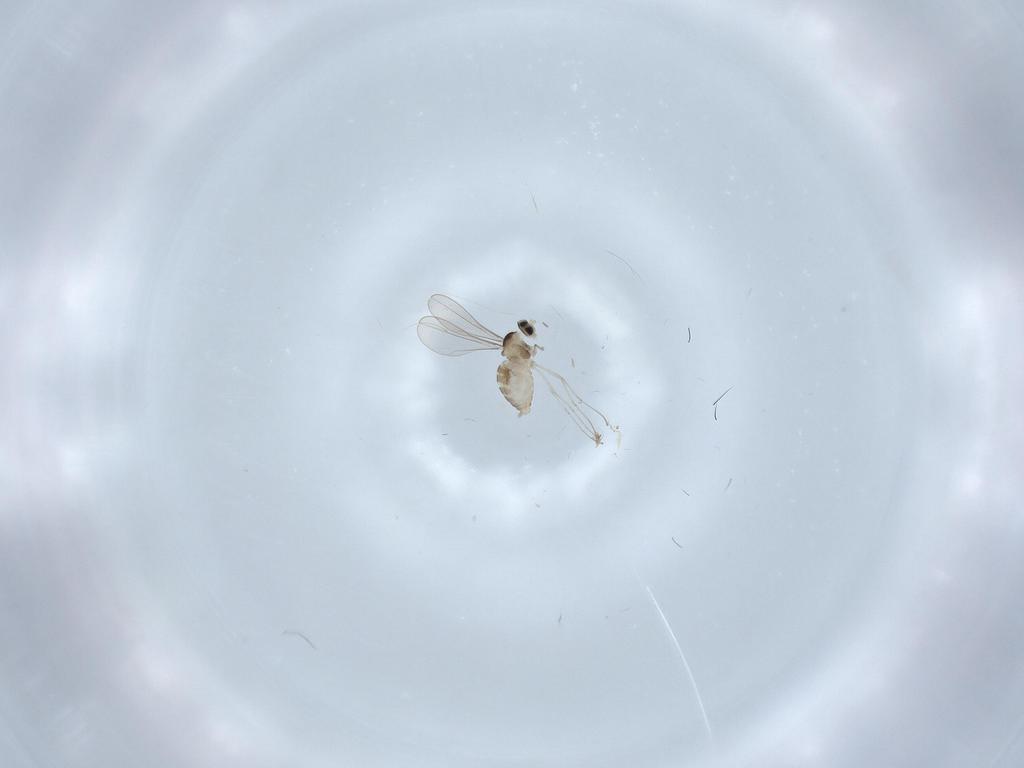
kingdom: Animalia
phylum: Arthropoda
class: Insecta
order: Diptera
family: Cecidomyiidae
